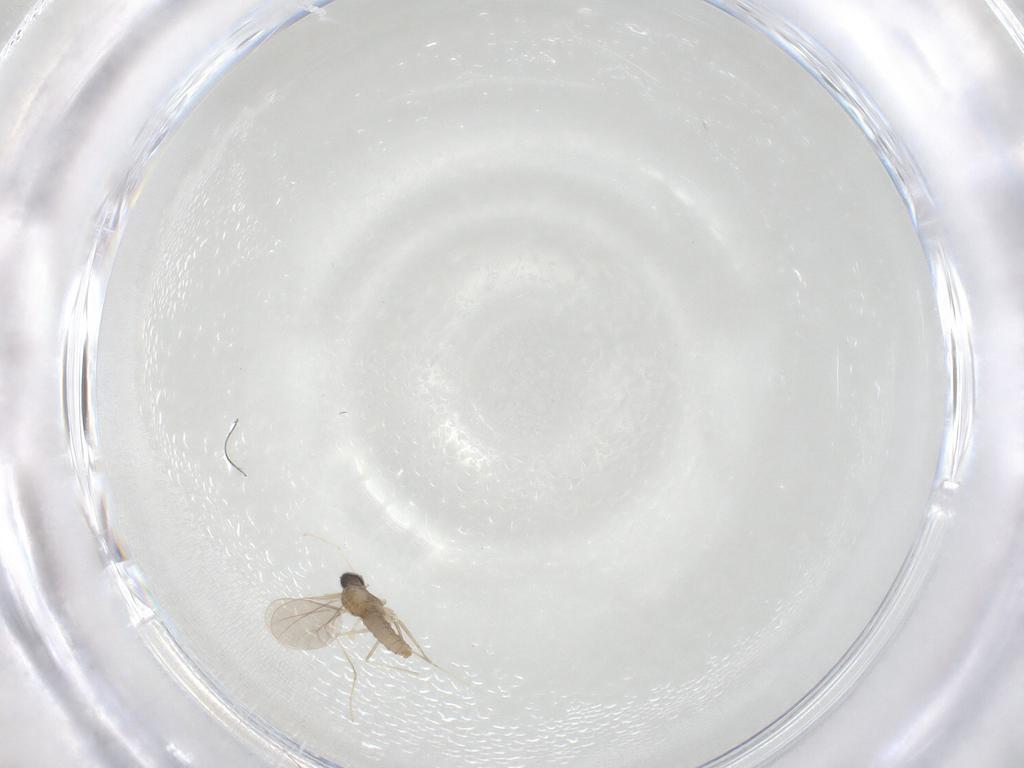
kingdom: Animalia
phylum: Arthropoda
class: Insecta
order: Diptera
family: Cecidomyiidae
